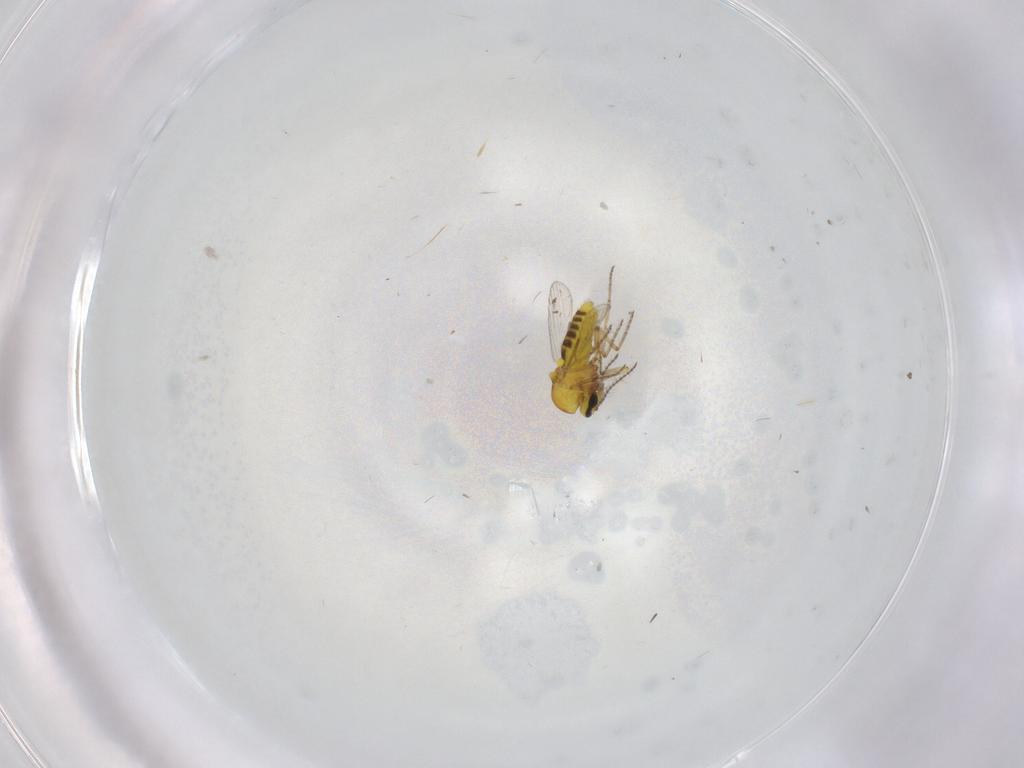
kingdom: Animalia
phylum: Arthropoda
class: Insecta
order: Diptera
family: Ceratopogonidae
